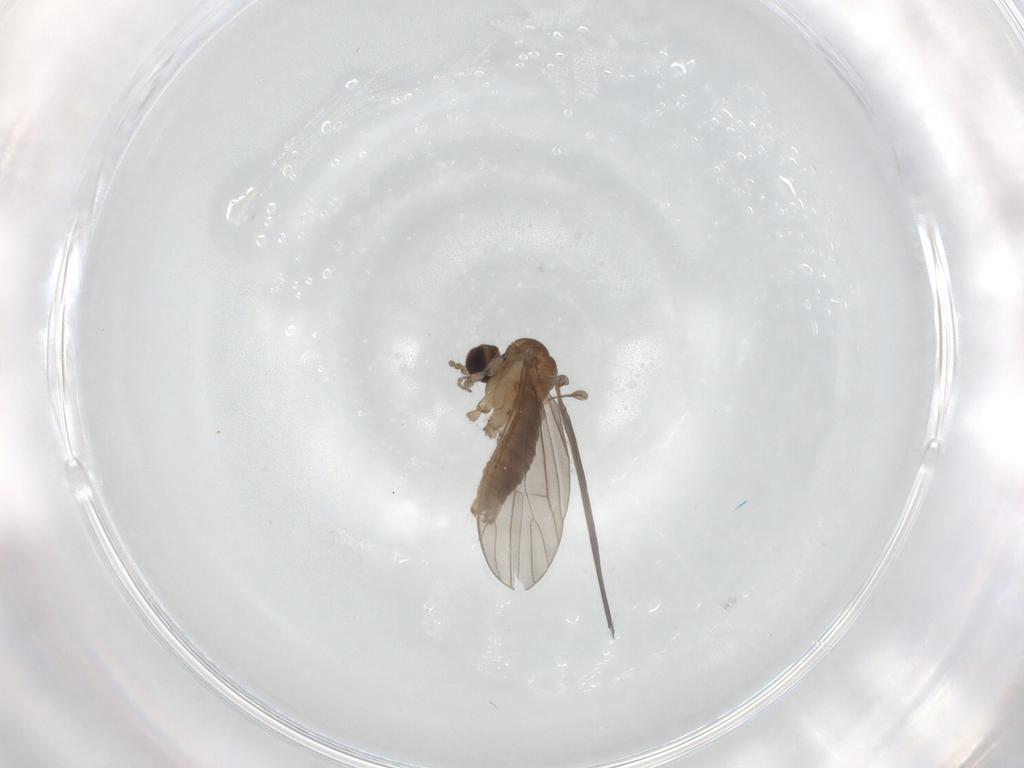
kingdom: Animalia
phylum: Arthropoda
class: Insecta
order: Diptera
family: Limoniidae
